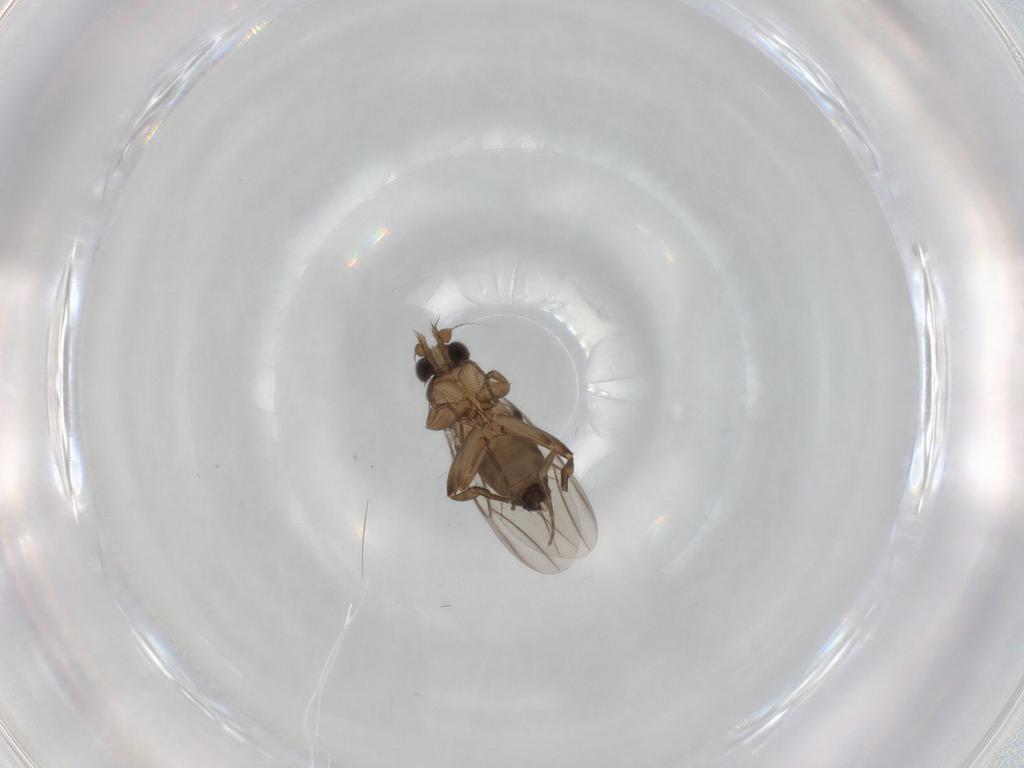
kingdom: Animalia
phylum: Arthropoda
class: Insecta
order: Diptera
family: Phoridae
